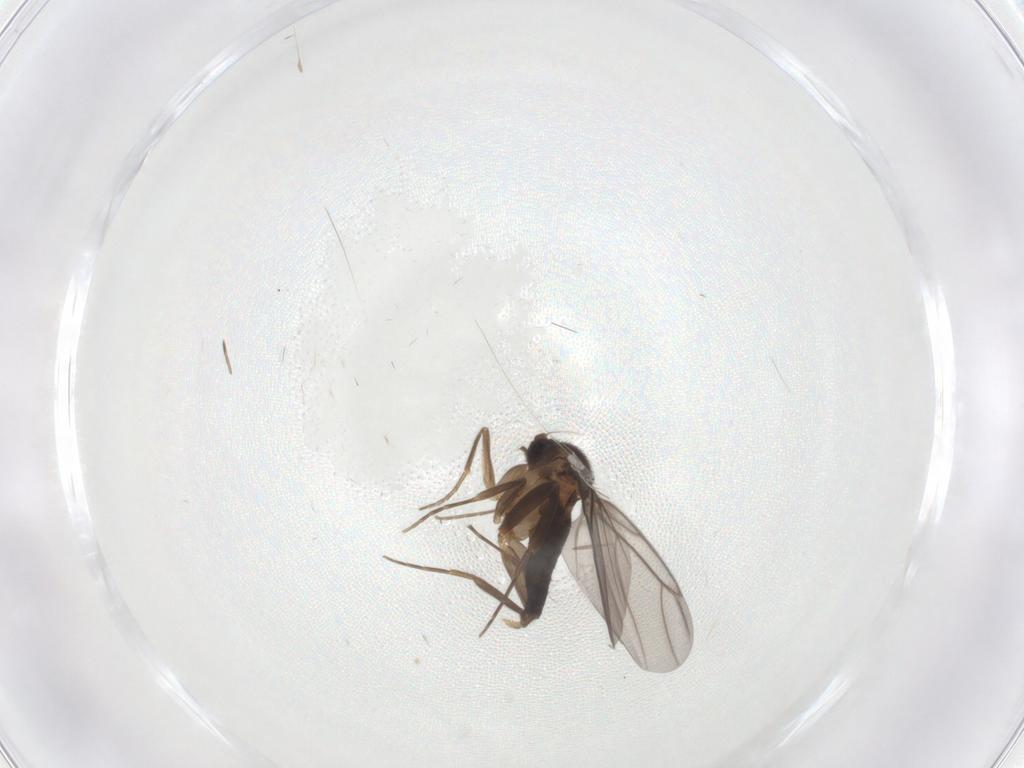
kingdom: Animalia
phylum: Arthropoda
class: Insecta
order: Diptera
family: Cecidomyiidae
